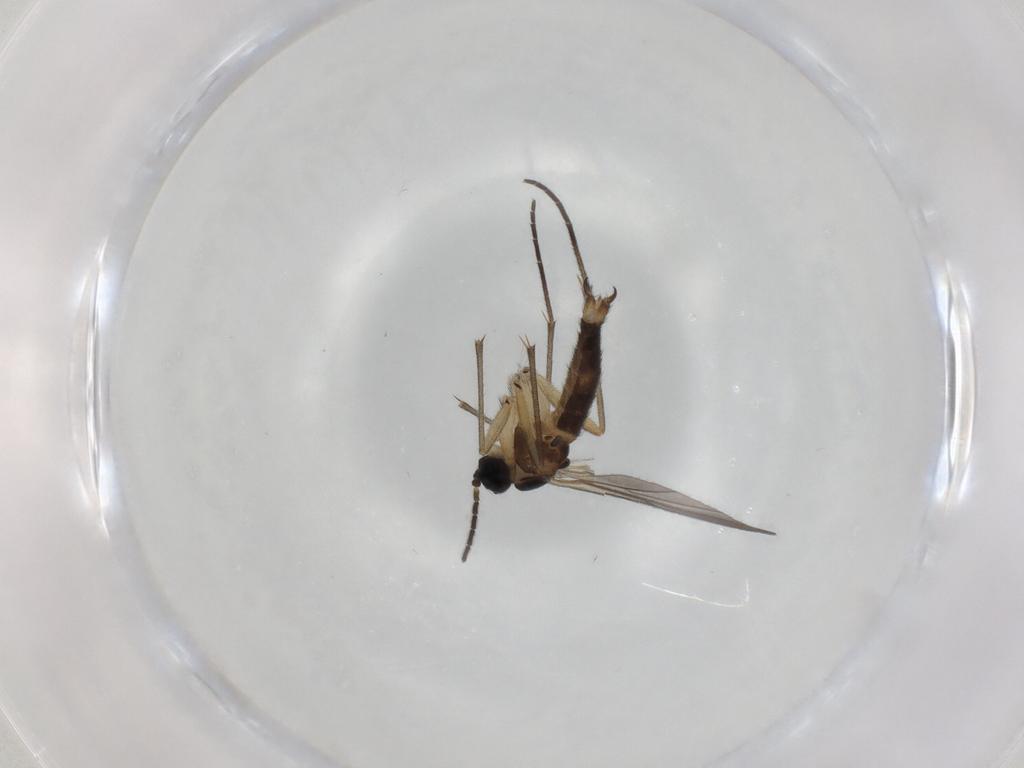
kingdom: Animalia
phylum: Arthropoda
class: Insecta
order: Diptera
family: Sciaridae
